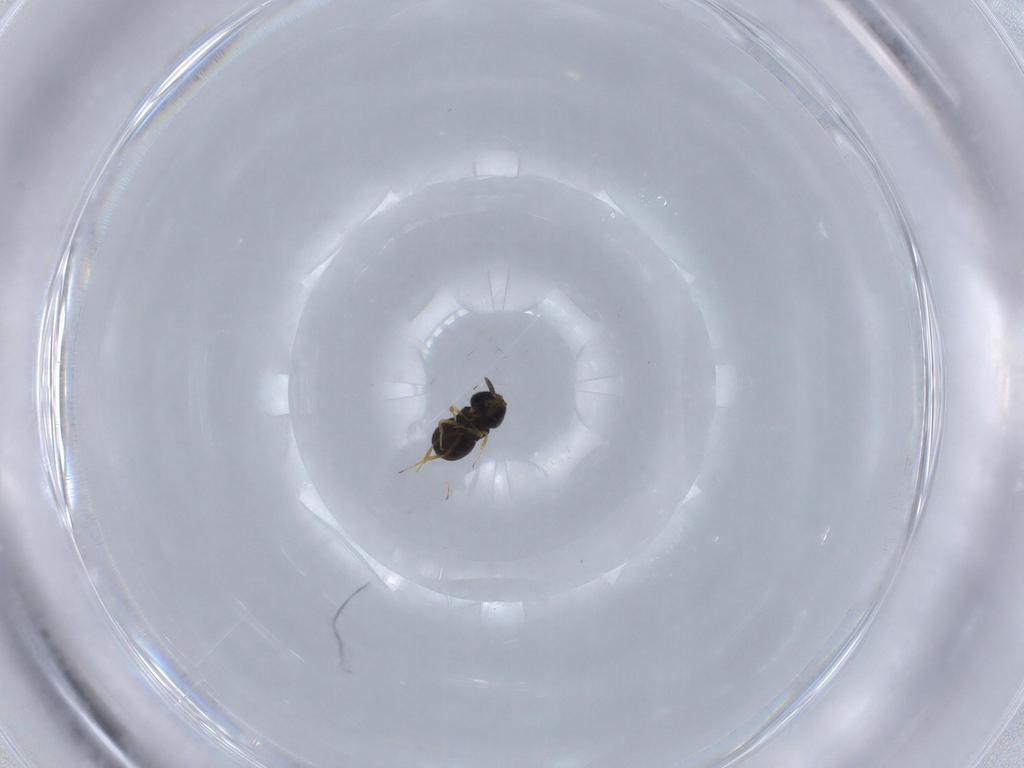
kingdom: Animalia
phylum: Arthropoda
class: Insecta
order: Hymenoptera
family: Scelionidae
